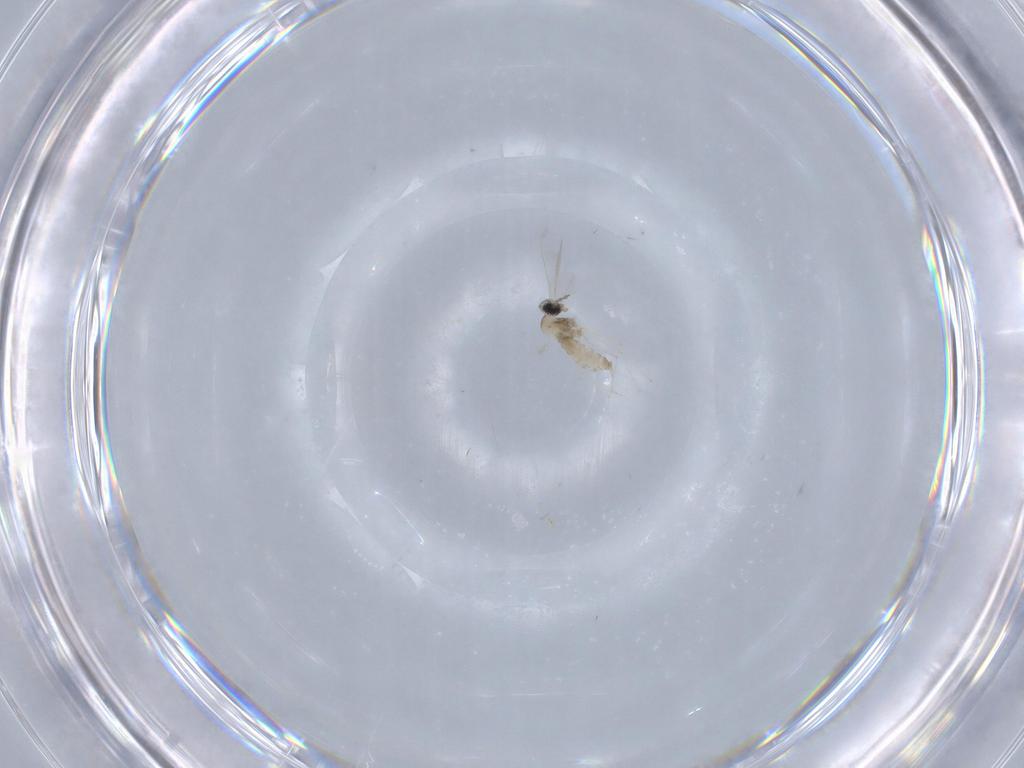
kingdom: Animalia
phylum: Arthropoda
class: Insecta
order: Diptera
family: Cecidomyiidae
